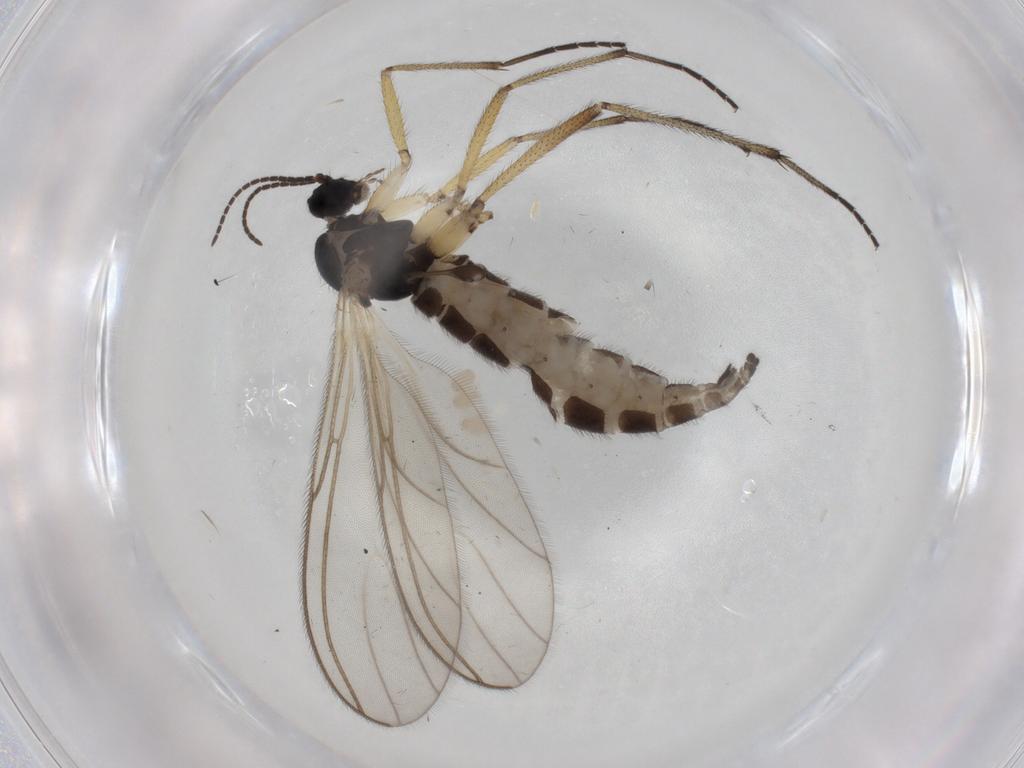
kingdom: Animalia
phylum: Arthropoda
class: Insecta
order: Diptera
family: Sciaridae
